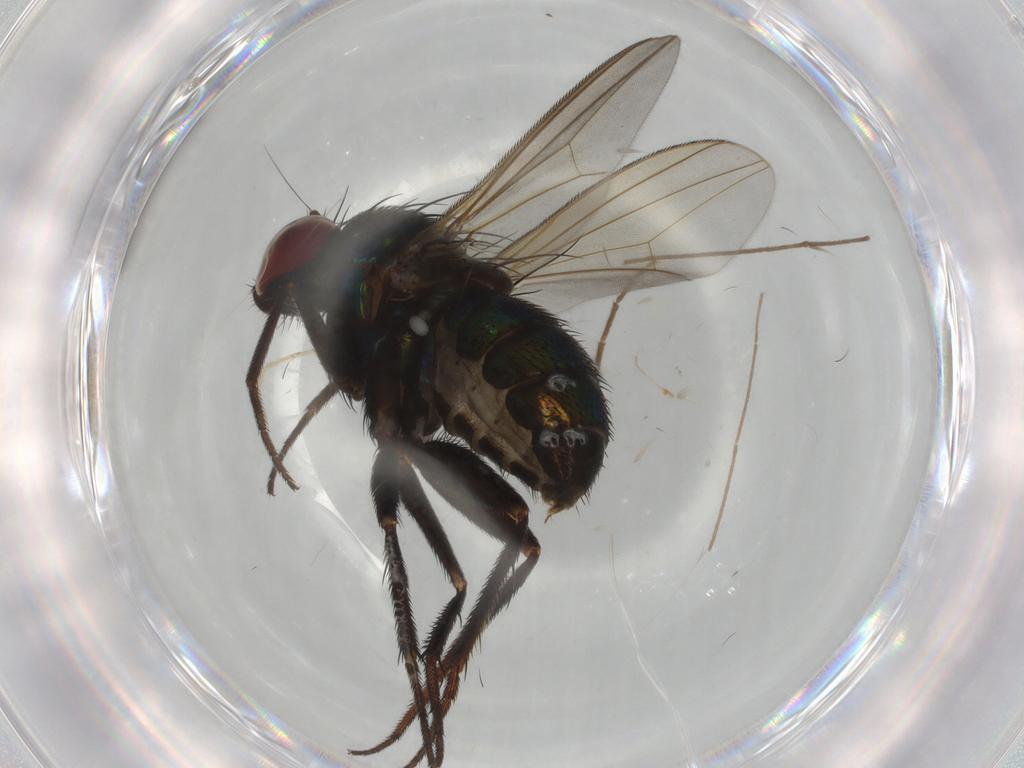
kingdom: Animalia
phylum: Arthropoda
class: Insecta
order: Diptera
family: Dolichopodidae
